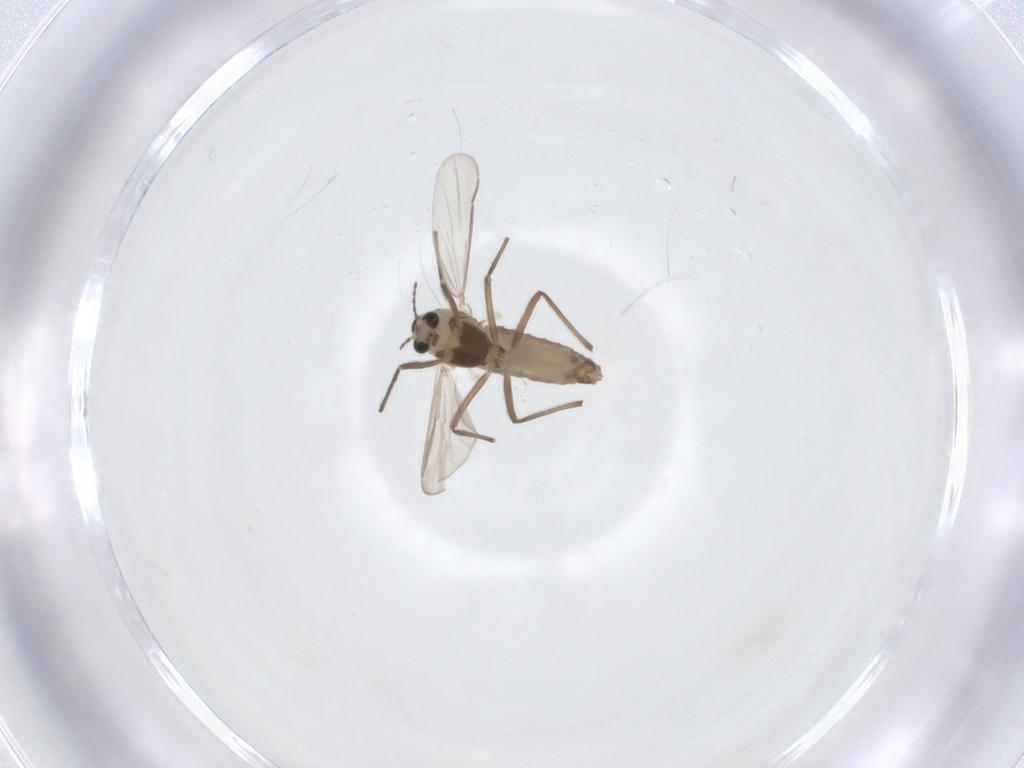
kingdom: Animalia
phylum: Arthropoda
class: Insecta
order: Diptera
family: Chironomidae
